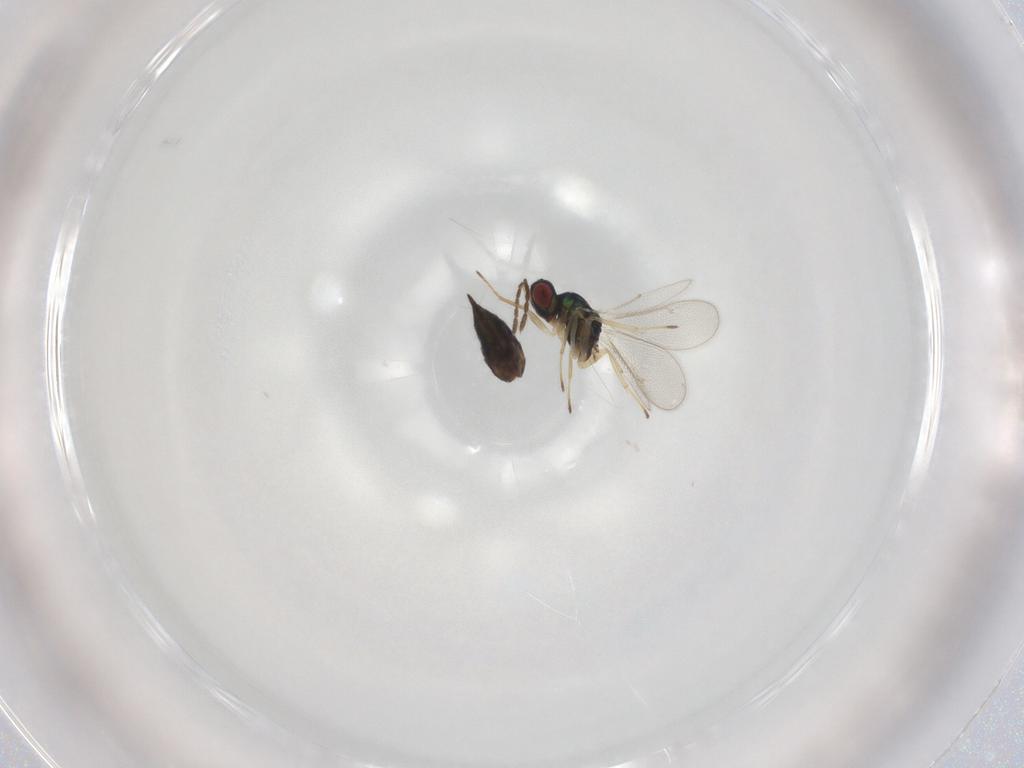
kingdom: Animalia
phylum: Arthropoda
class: Insecta
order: Hymenoptera
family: Eulophidae
